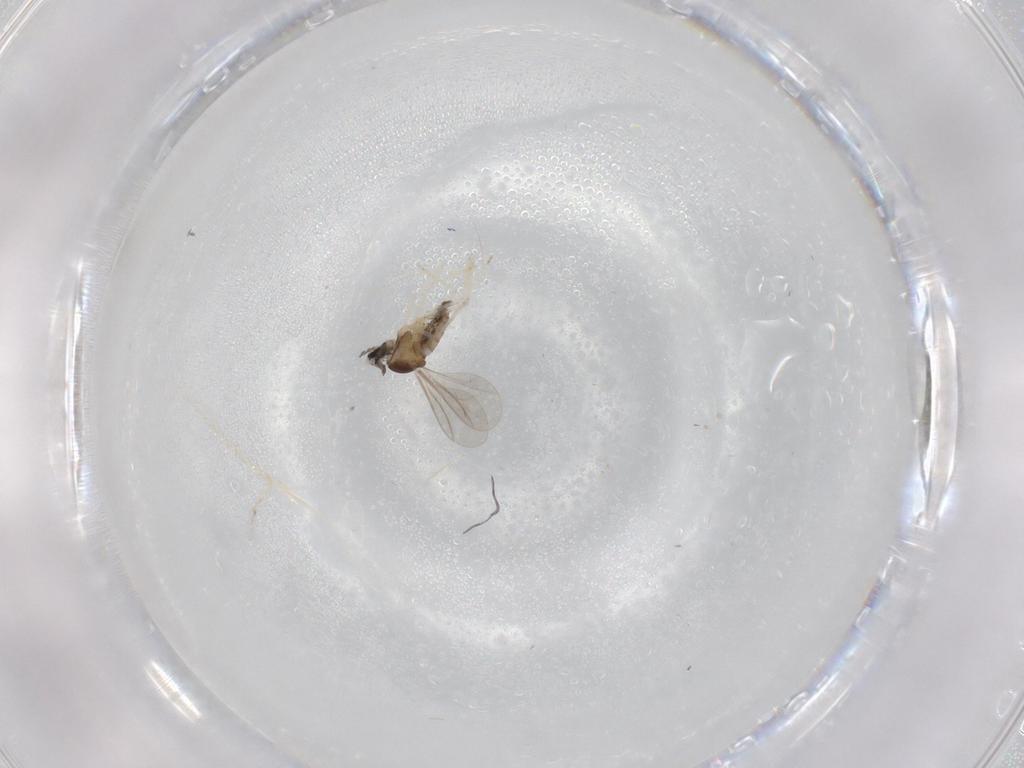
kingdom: Animalia
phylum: Arthropoda
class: Insecta
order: Diptera
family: Cecidomyiidae
